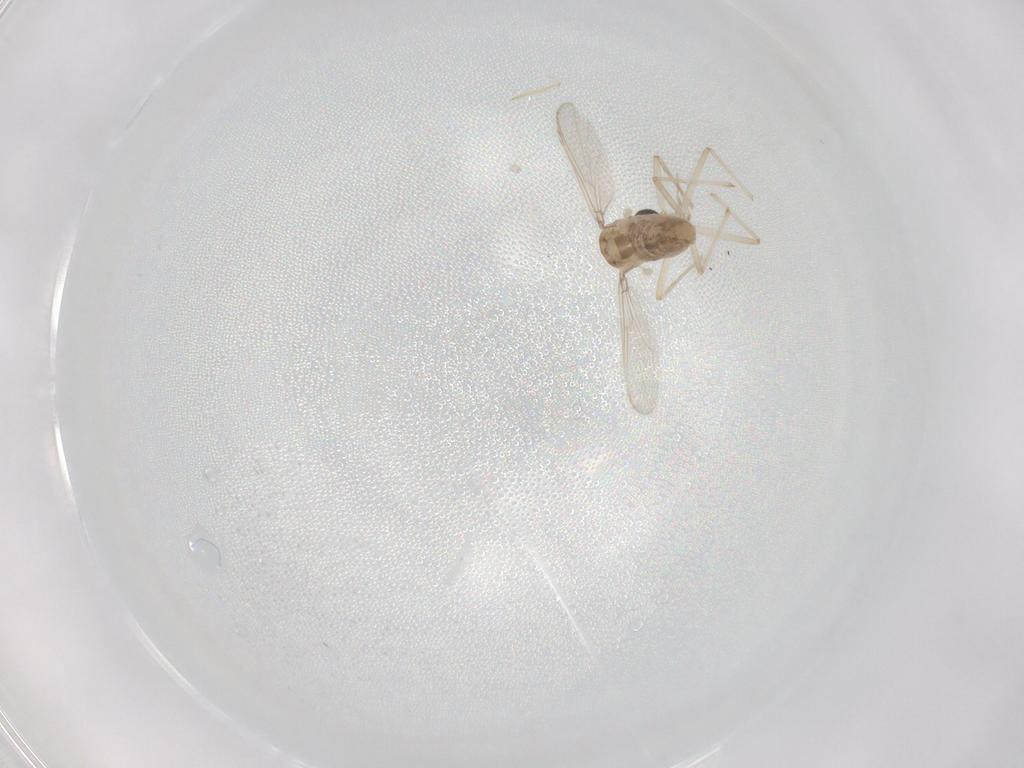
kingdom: Animalia
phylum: Arthropoda
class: Insecta
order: Diptera
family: Chironomidae
